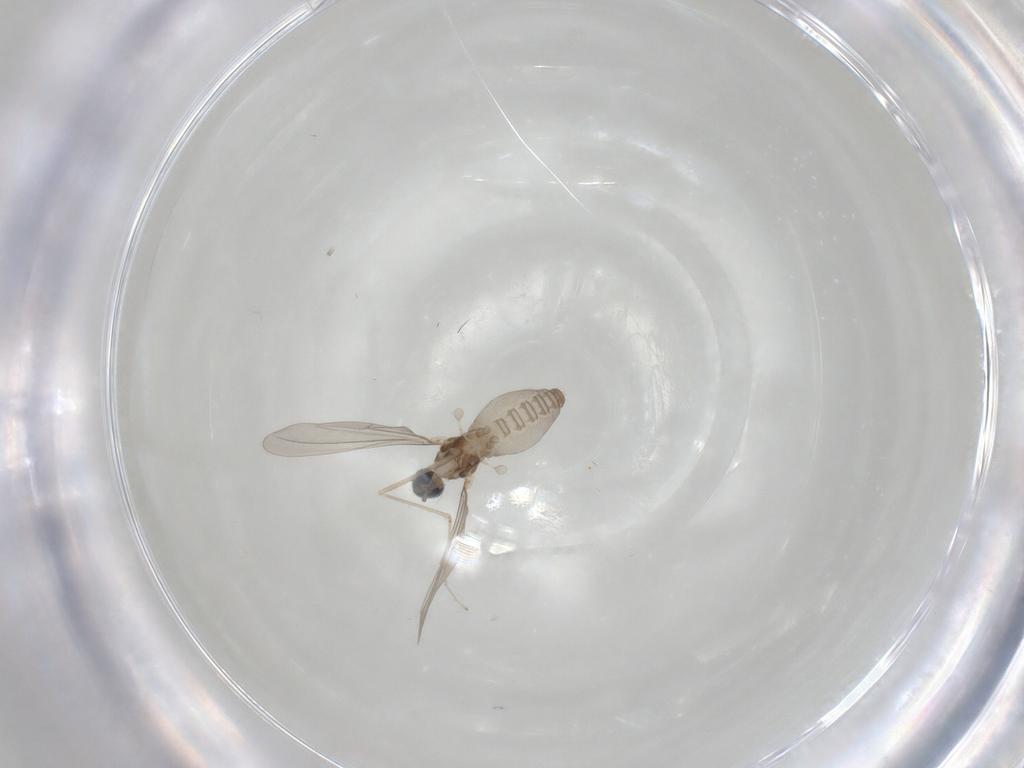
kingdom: Animalia
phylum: Arthropoda
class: Insecta
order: Diptera
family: Cecidomyiidae
